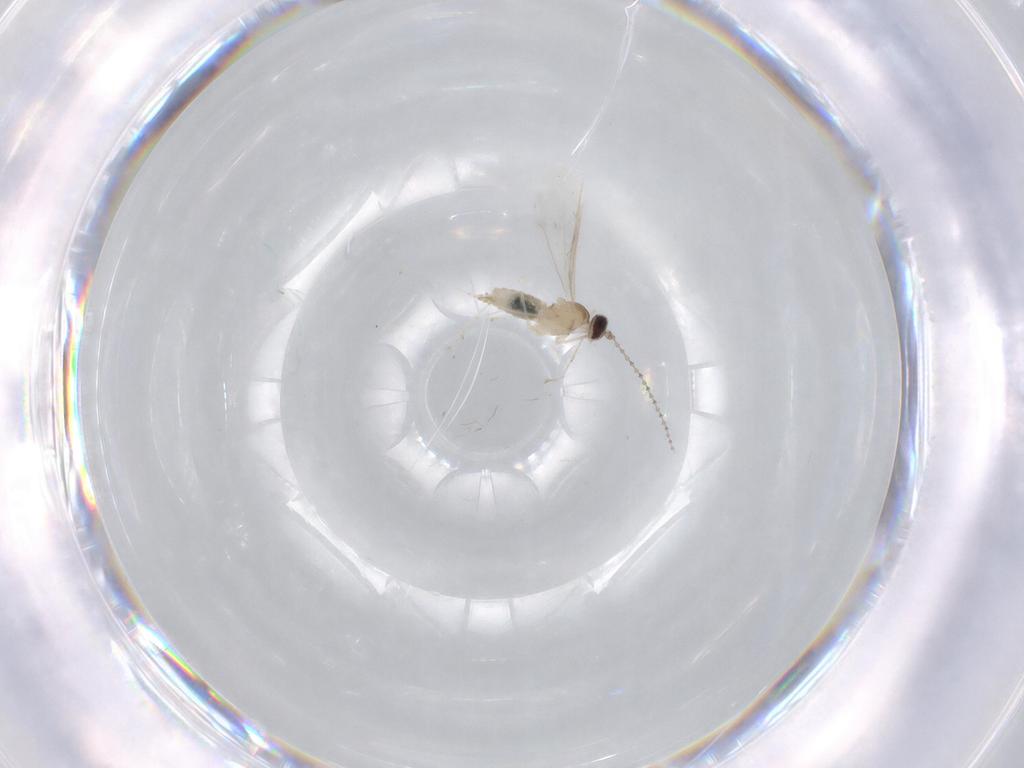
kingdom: Animalia
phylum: Arthropoda
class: Insecta
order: Diptera
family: Cecidomyiidae
